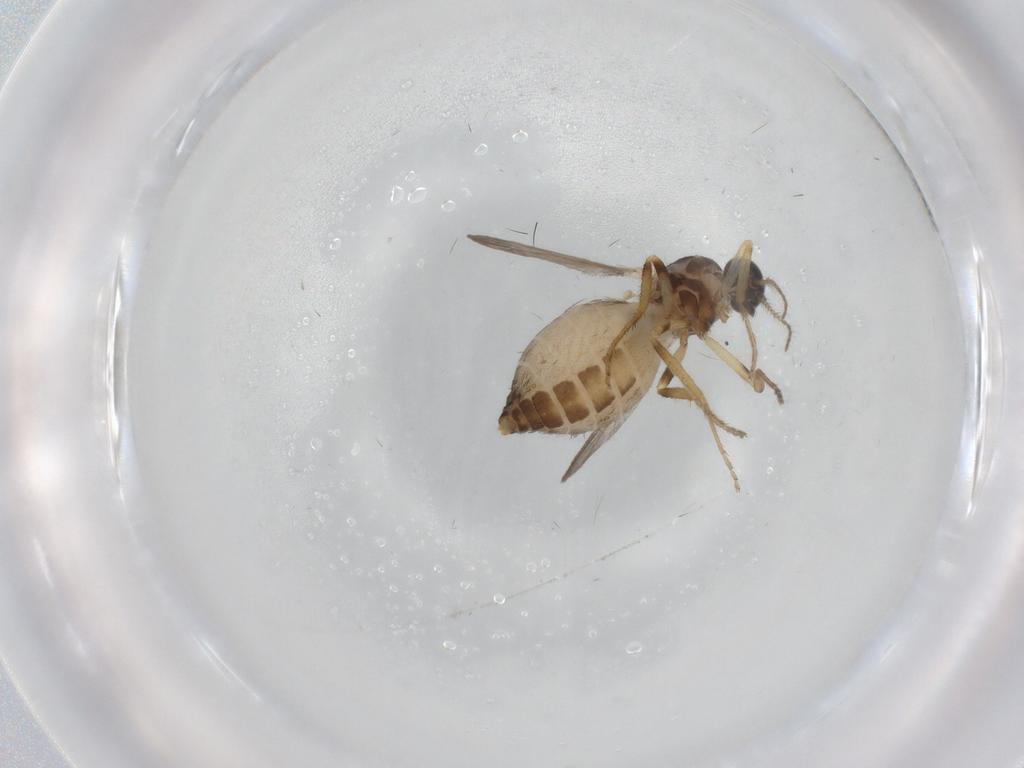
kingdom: Animalia
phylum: Arthropoda
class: Insecta
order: Diptera
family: Ceratopogonidae
